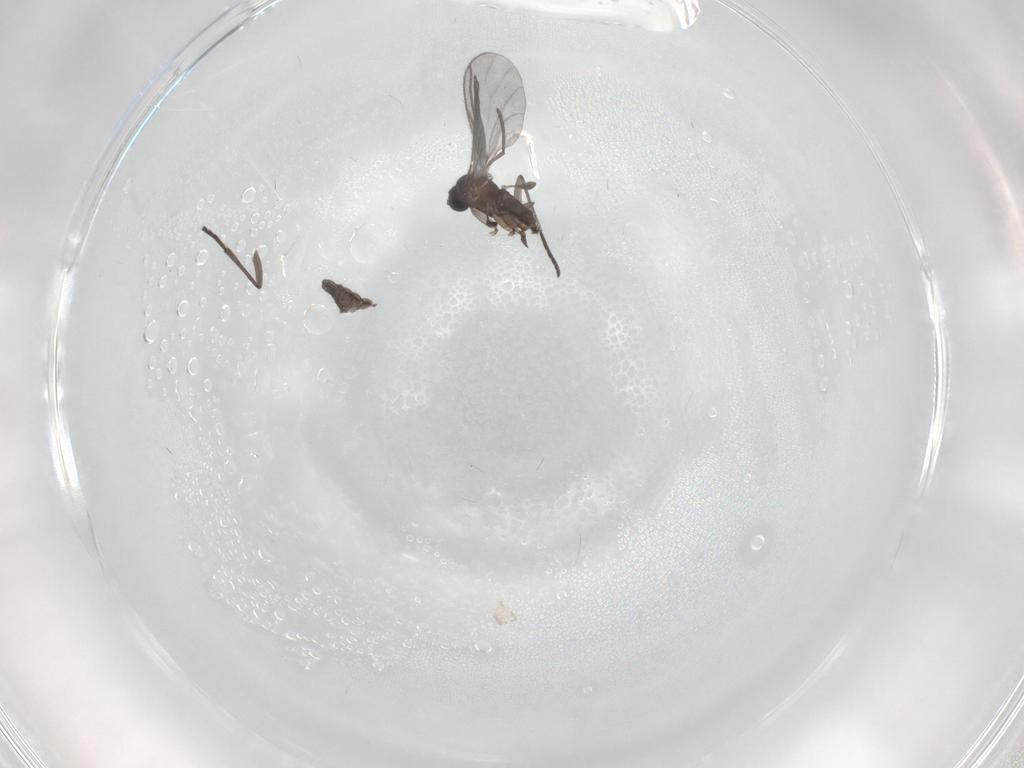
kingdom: Animalia
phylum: Arthropoda
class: Insecta
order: Diptera
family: Chironomidae
